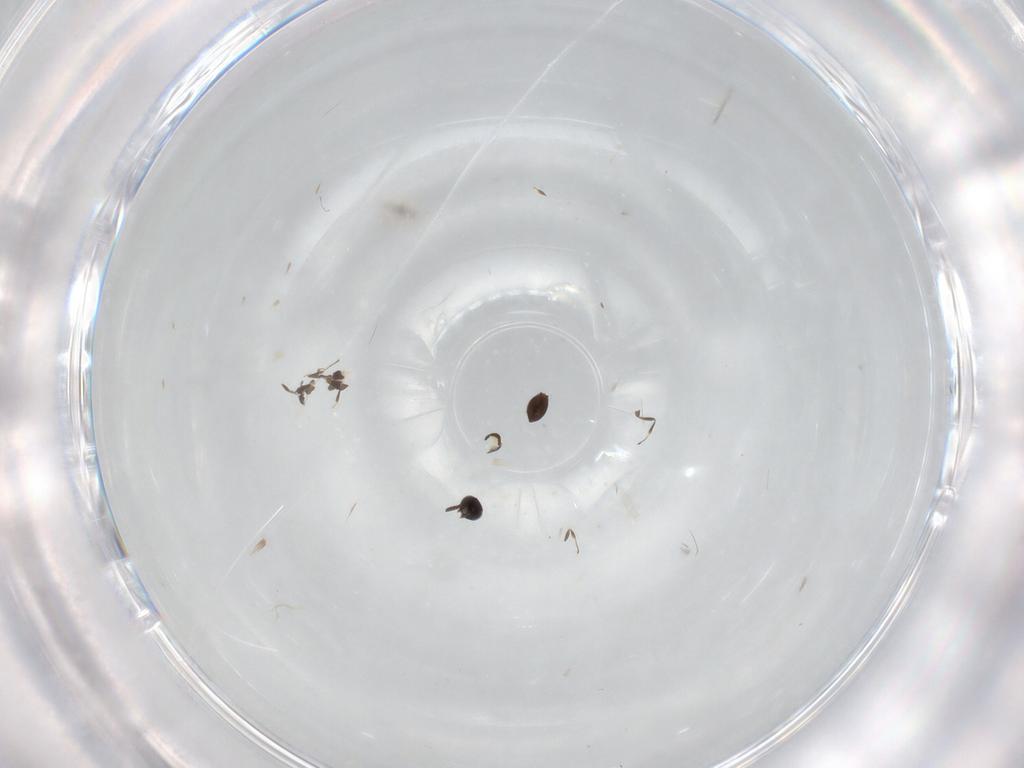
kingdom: Animalia
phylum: Arthropoda
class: Insecta
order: Hymenoptera
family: Scelionidae
